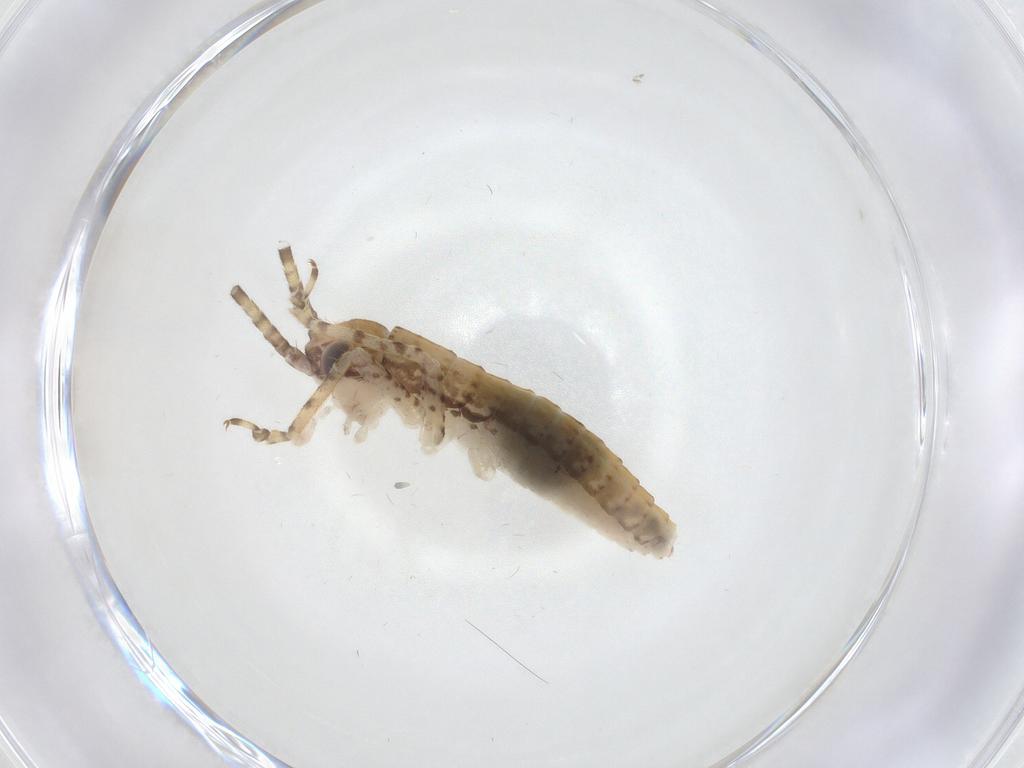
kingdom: Animalia
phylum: Arthropoda
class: Insecta
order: Orthoptera
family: Gryllidae
